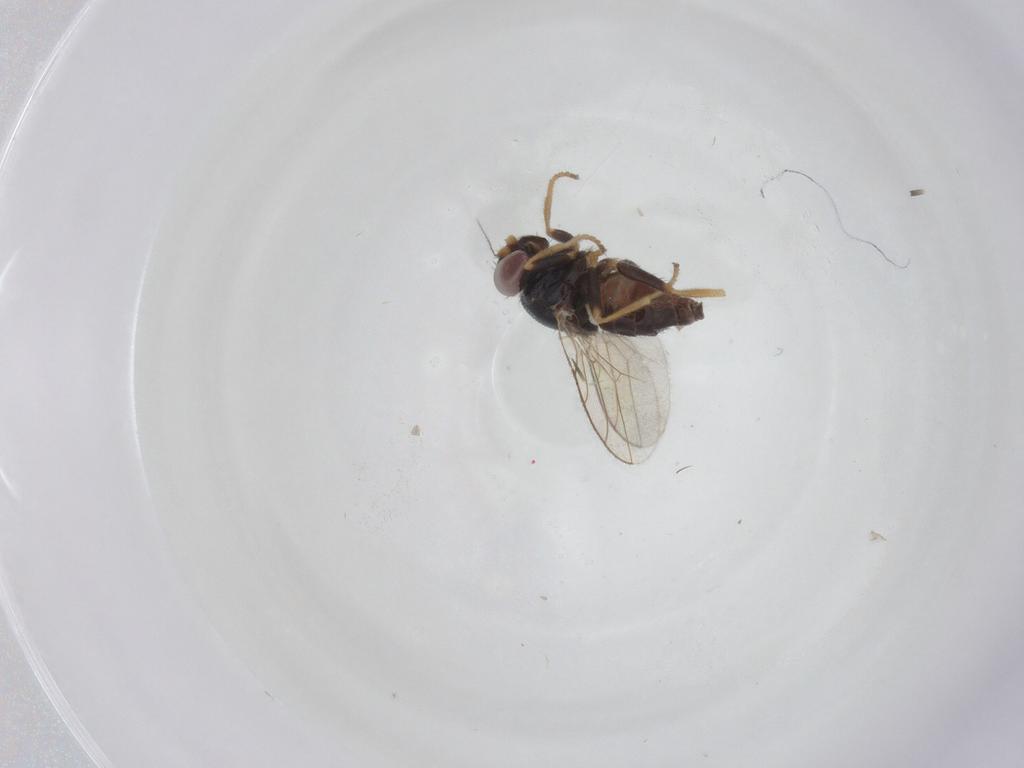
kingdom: Animalia
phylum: Arthropoda
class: Insecta
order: Diptera
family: Chloropidae
